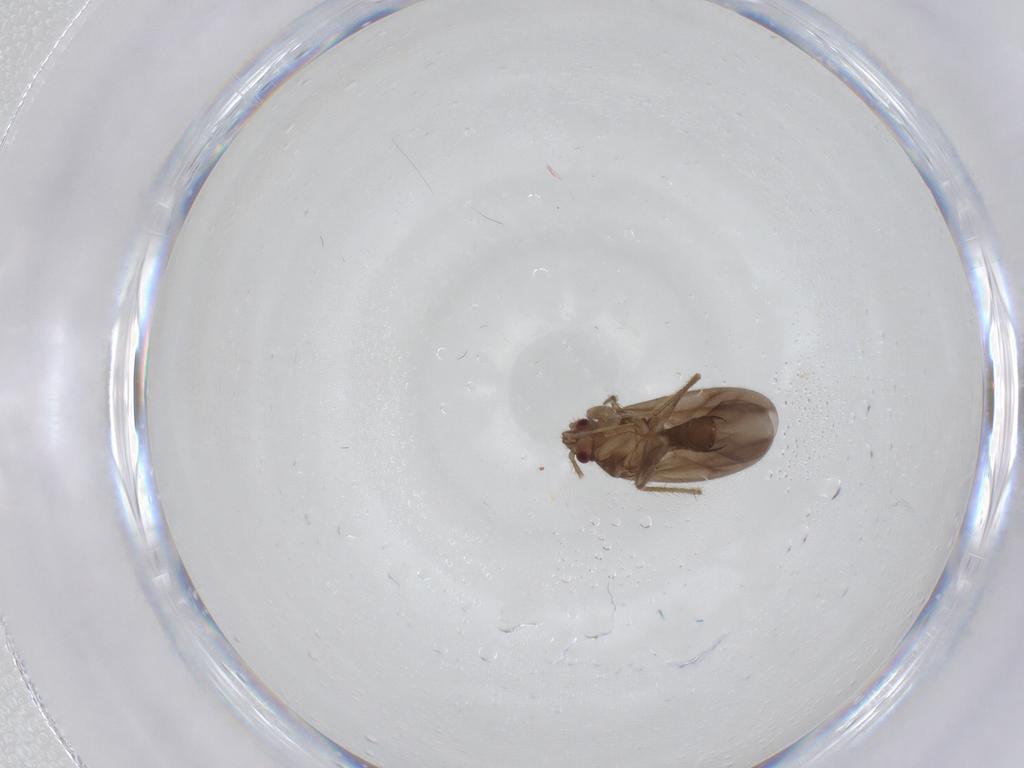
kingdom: Animalia
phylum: Arthropoda
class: Insecta
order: Hemiptera
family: Ceratocombidae
